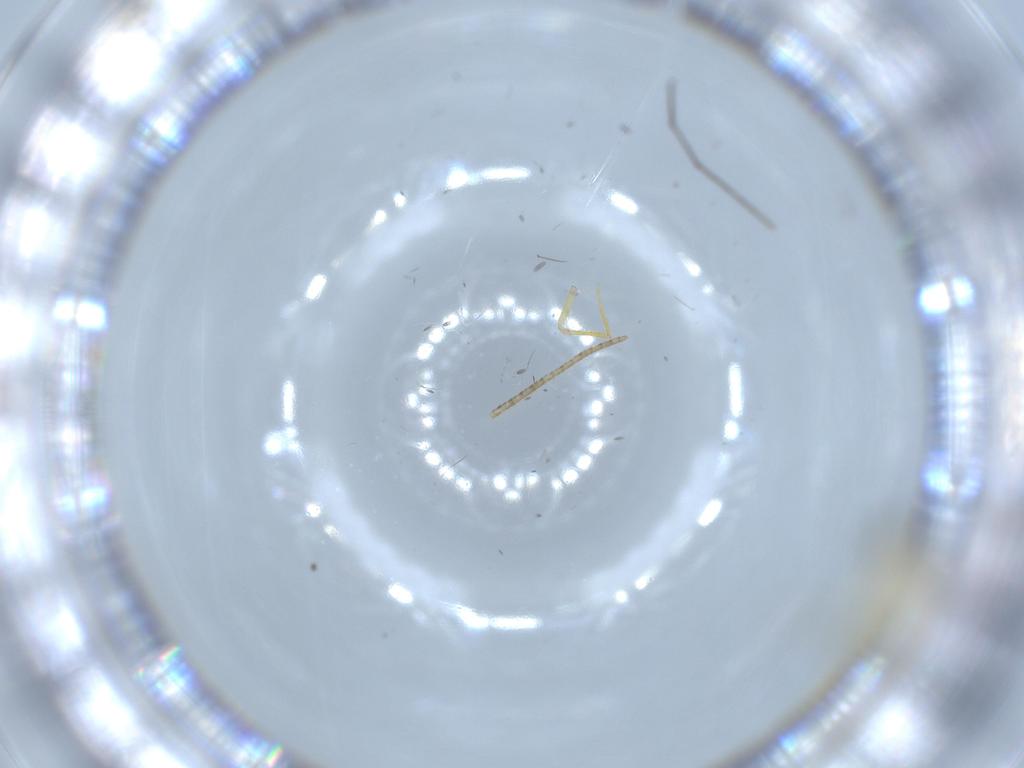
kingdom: Animalia
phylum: Arthropoda
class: Insecta
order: Diptera
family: Chironomidae
